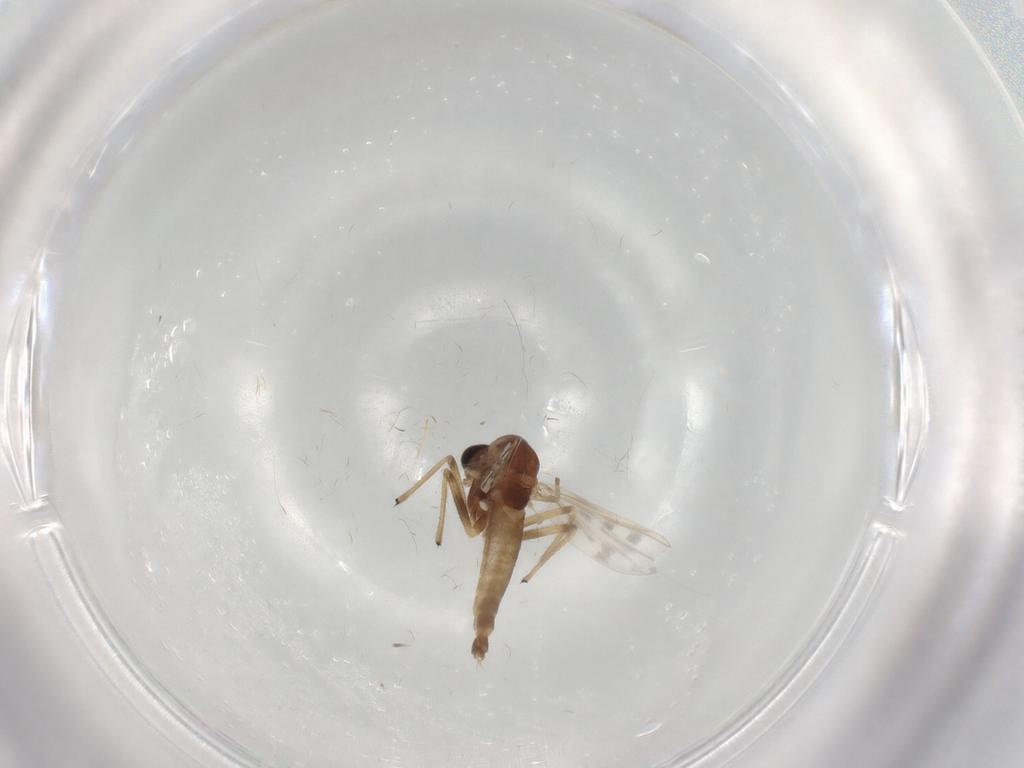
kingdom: Animalia
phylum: Arthropoda
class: Insecta
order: Diptera
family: Chironomidae
